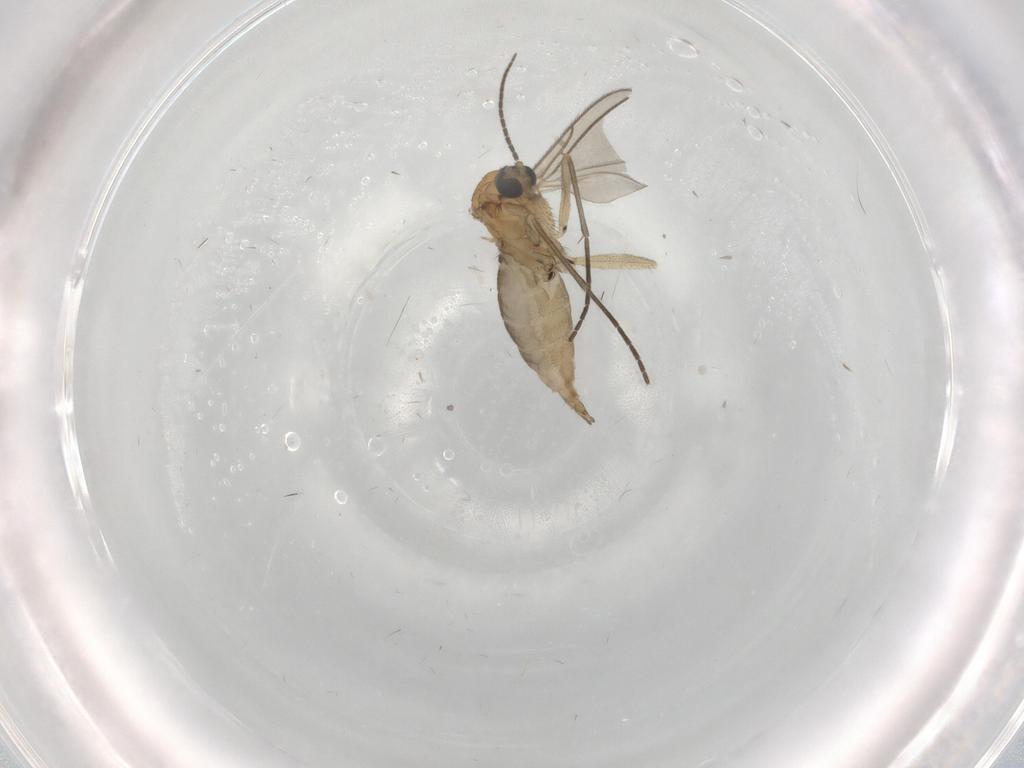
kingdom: Animalia
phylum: Arthropoda
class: Insecta
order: Diptera
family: Sciaridae
